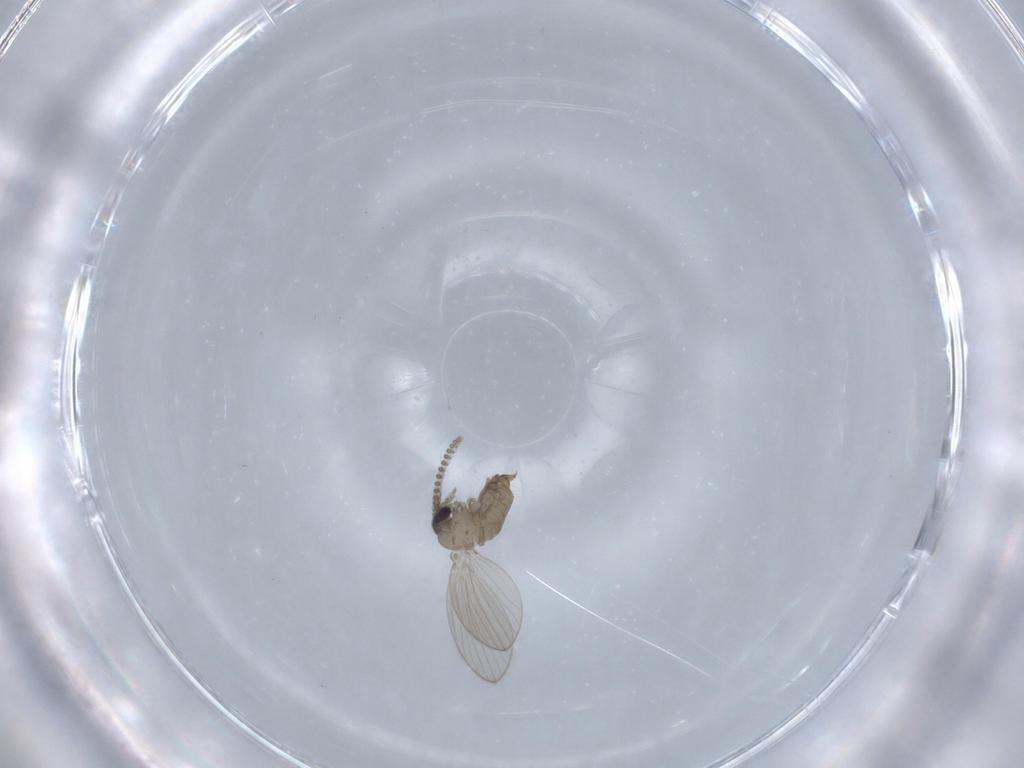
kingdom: Animalia
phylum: Arthropoda
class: Insecta
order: Diptera
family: Psychodidae
